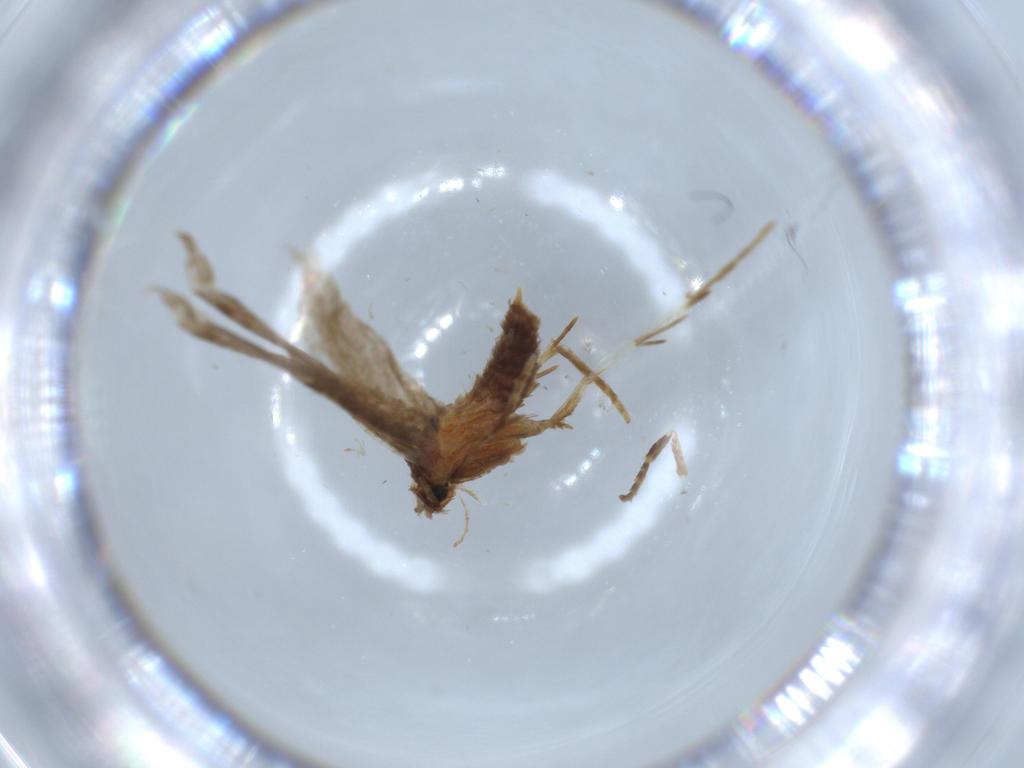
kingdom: Animalia
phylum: Arthropoda
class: Insecta
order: Lepidoptera
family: Gelechiidae
